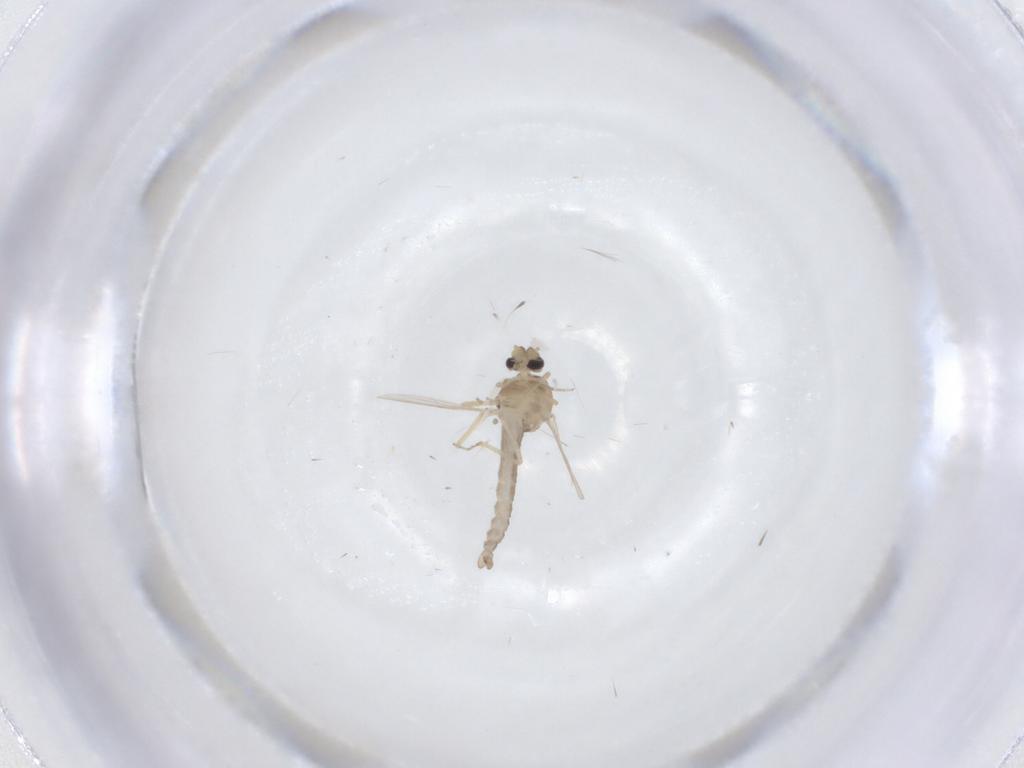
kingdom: Animalia
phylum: Arthropoda
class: Insecta
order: Diptera
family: Ceratopogonidae
